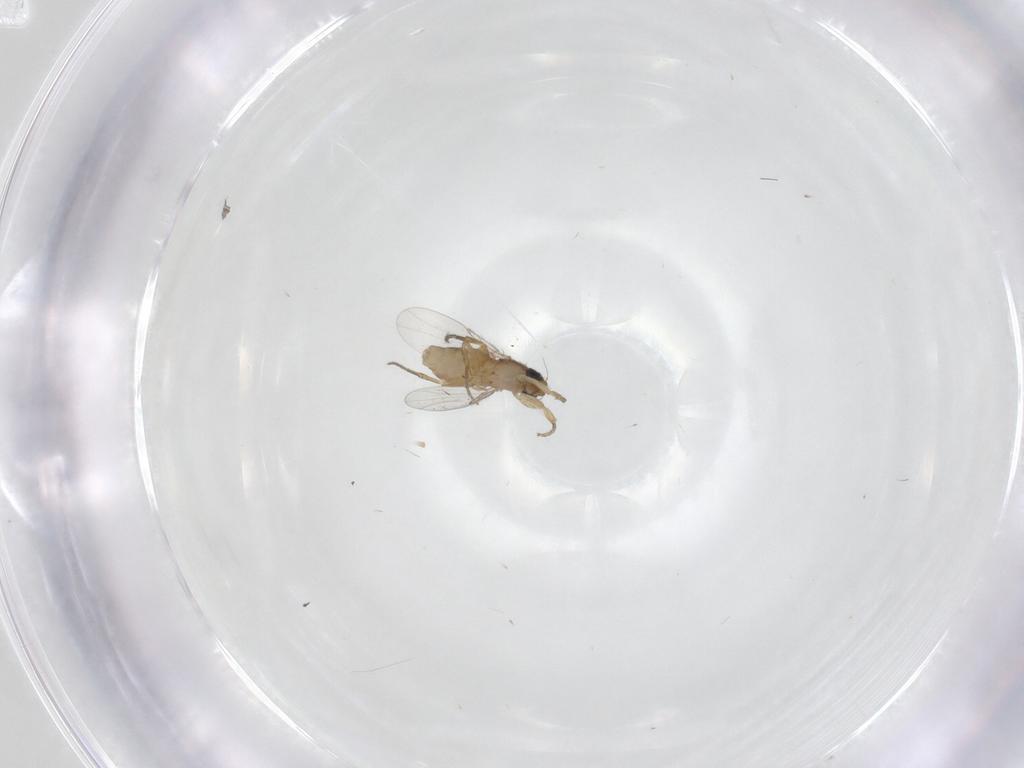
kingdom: Animalia
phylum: Arthropoda
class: Insecta
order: Diptera
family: Phoridae
